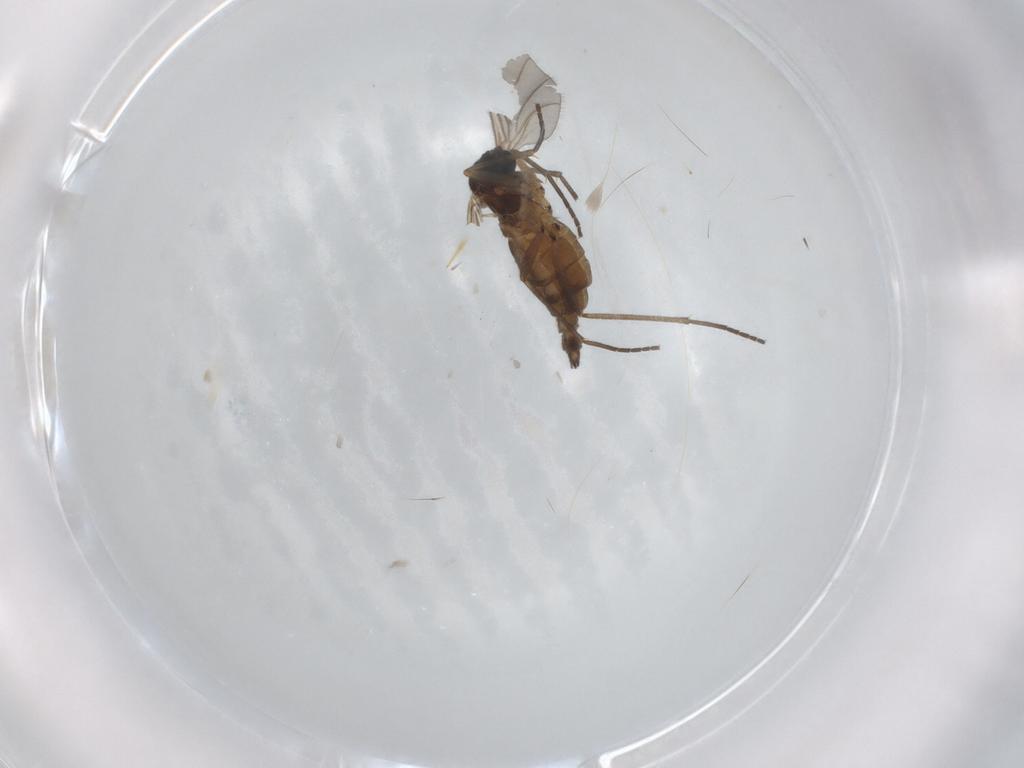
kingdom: Animalia
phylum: Arthropoda
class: Insecta
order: Diptera
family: Sciaridae
